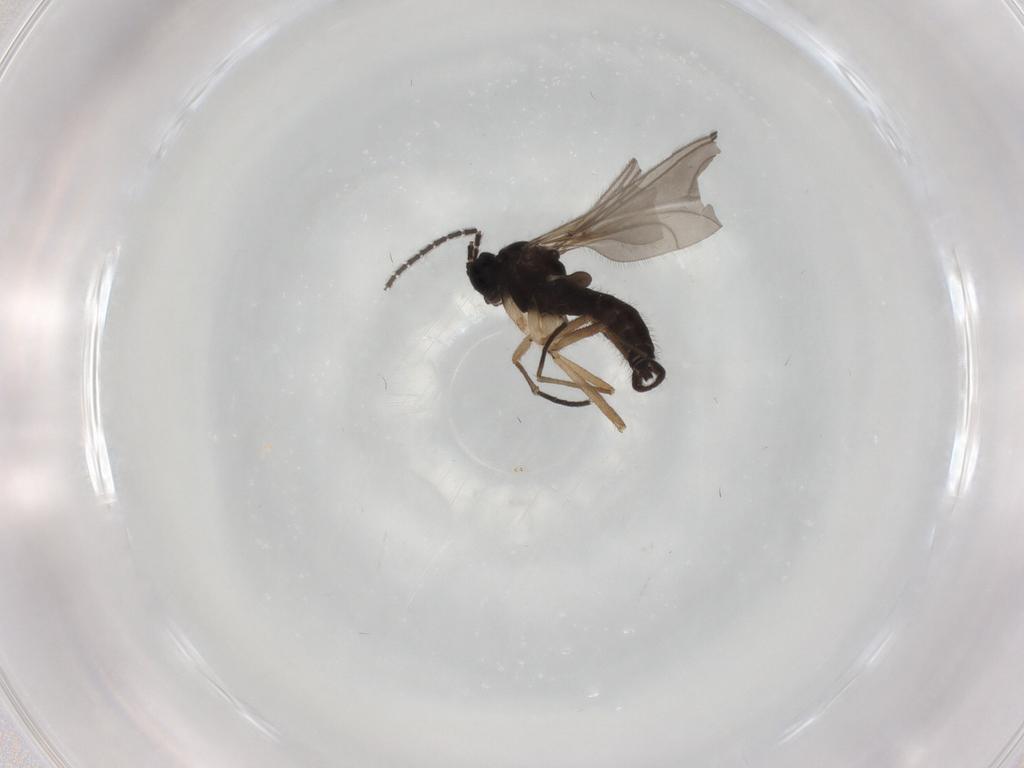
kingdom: Animalia
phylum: Arthropoda
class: Insecta
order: Diptera
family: Sciaridae
